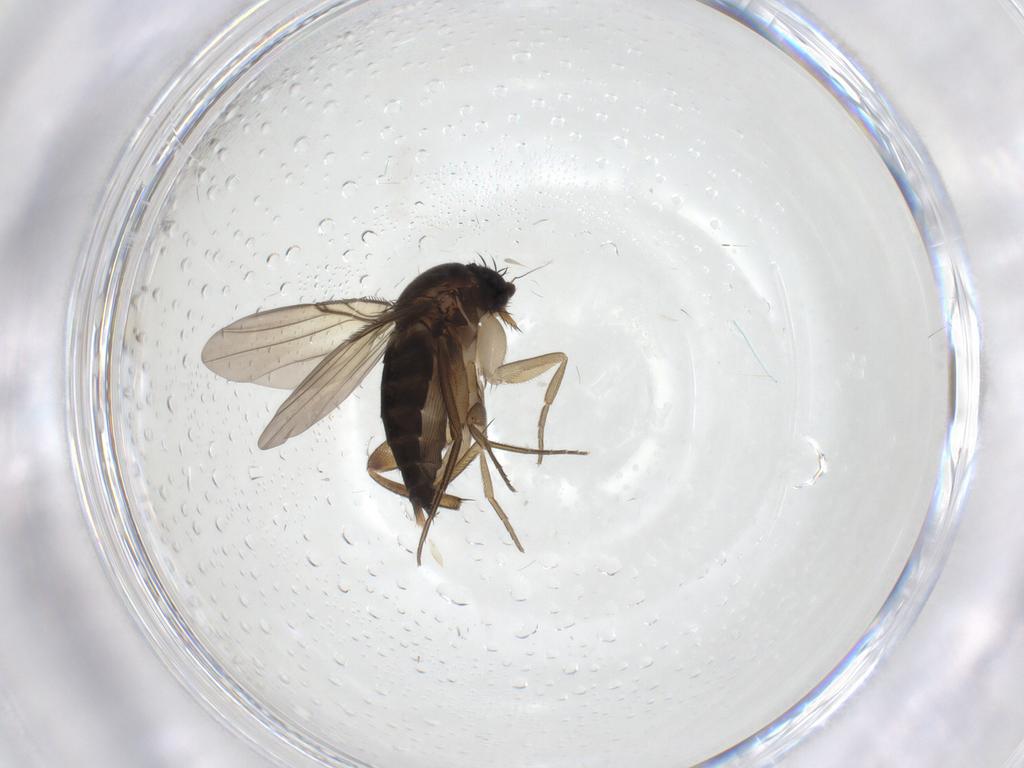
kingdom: Animalia
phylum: Arthropoda
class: Insecta
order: Diptera
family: Phoridae
